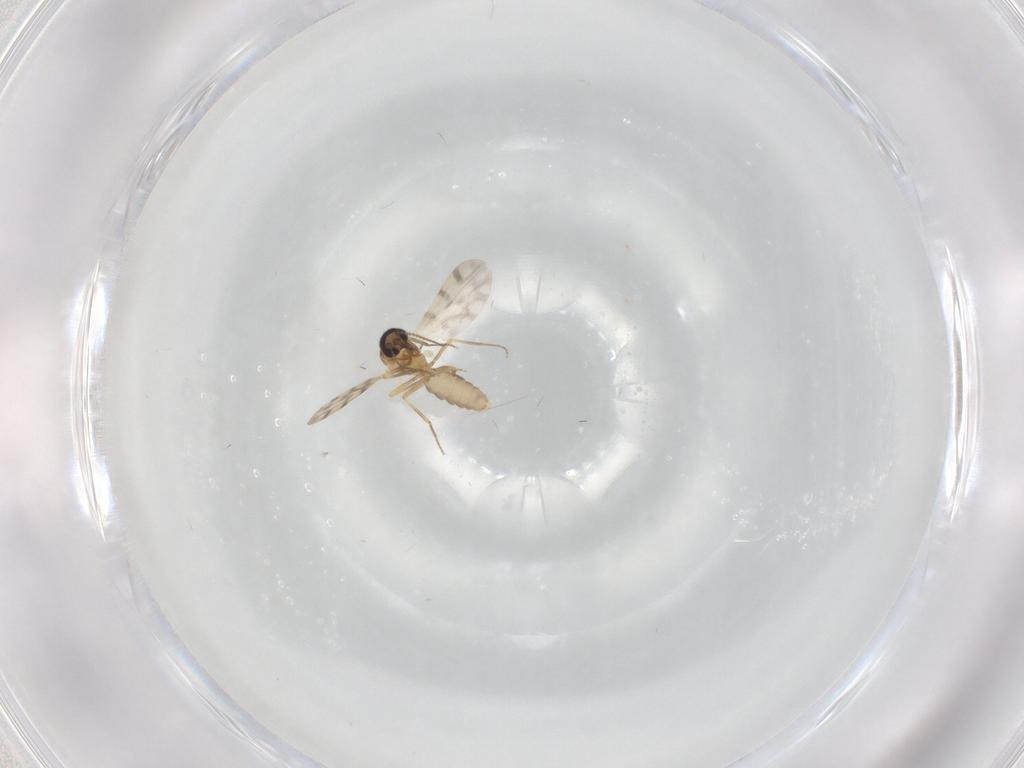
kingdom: Animalia
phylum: Arthropoda
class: Insecta
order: Diptera
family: Ceratopogonidae
